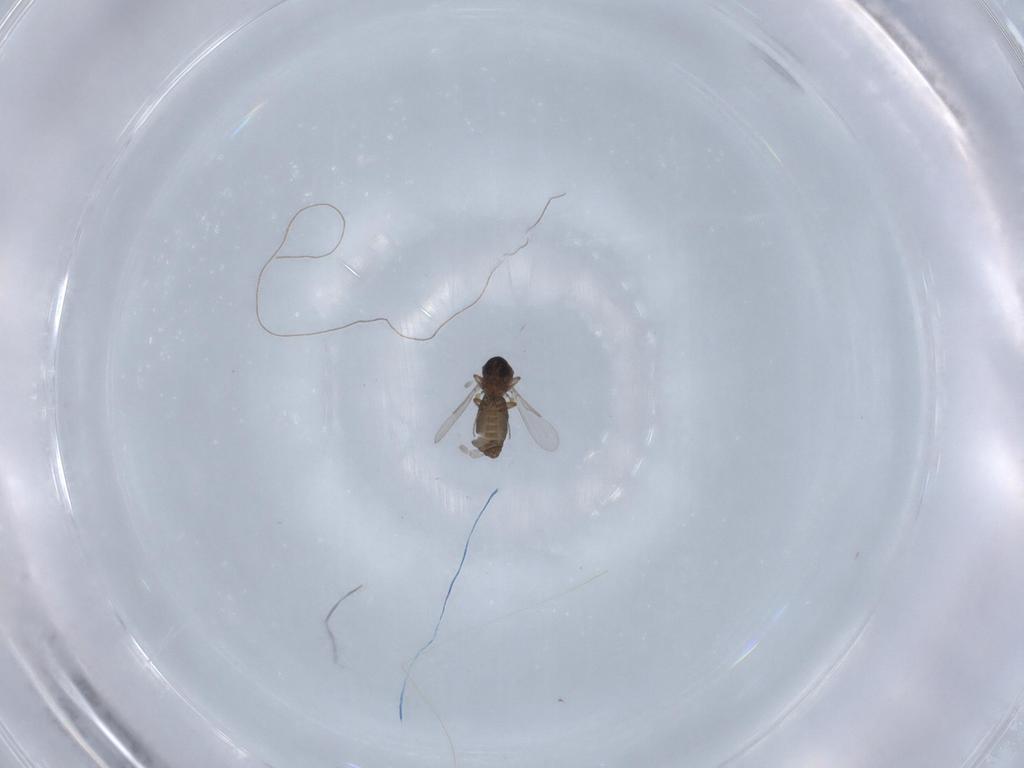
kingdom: Animalia
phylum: Arthropoda
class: Insecta
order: Diptera
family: Ceratopogonidae
